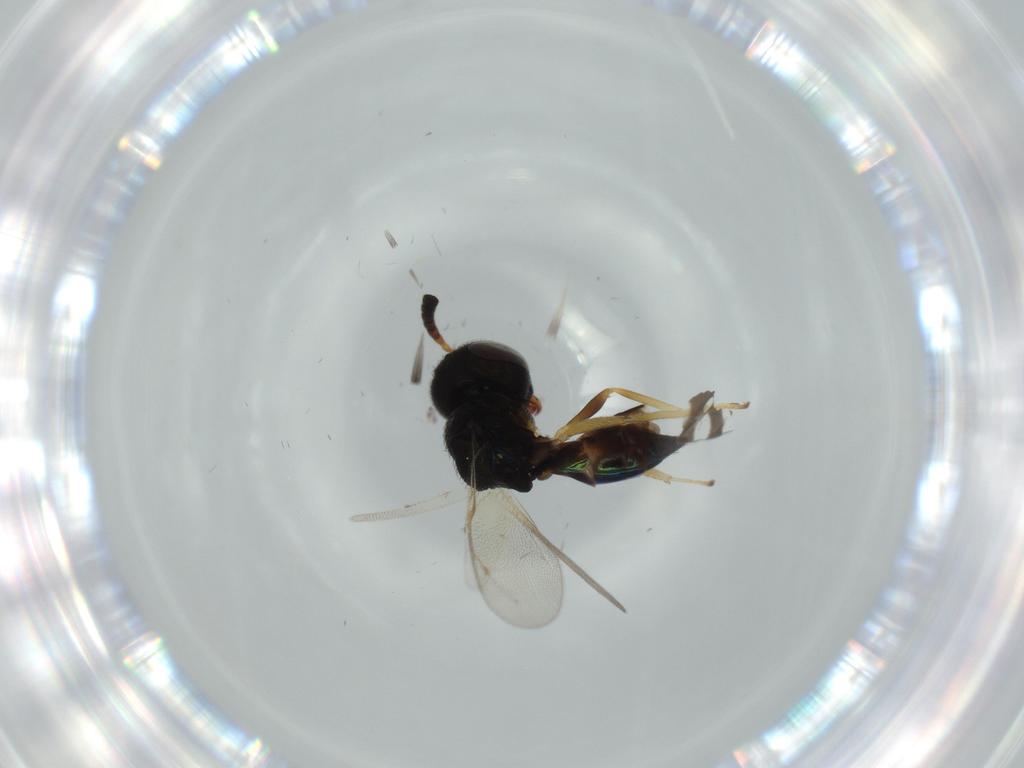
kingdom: Animalia
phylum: Arthropoda
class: Insecta
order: Hymenoptera
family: Pteromalidae
